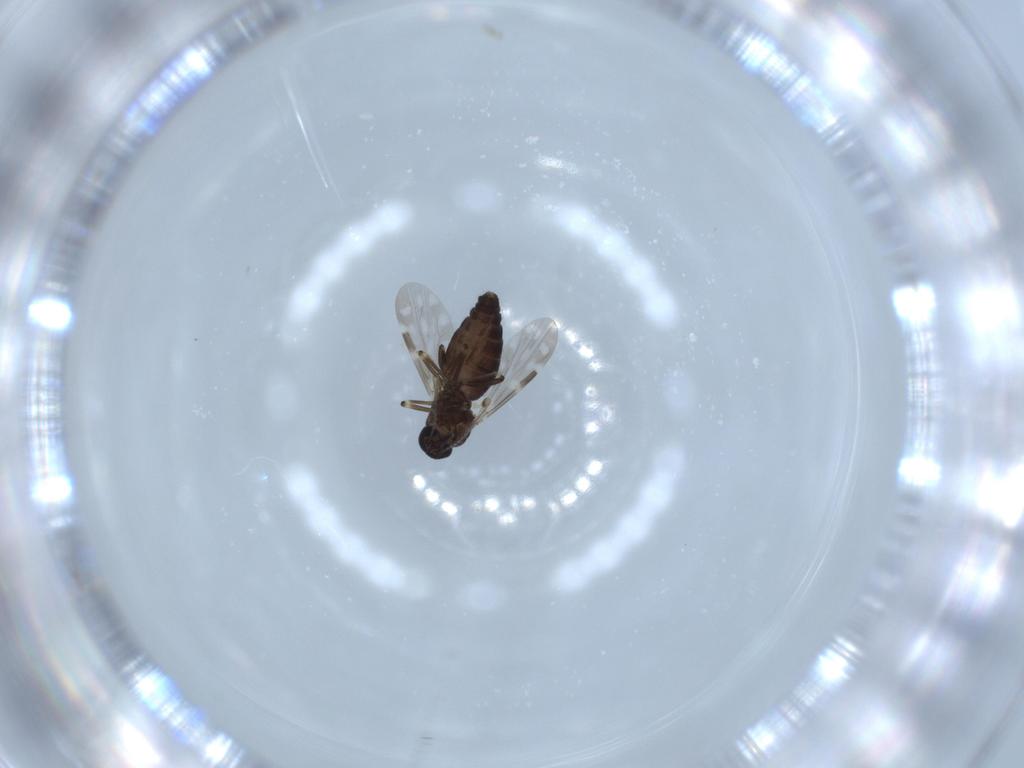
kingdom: Animalia
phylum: Arthropoda
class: Insecta
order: Diptera
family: Ceratopogonidae
